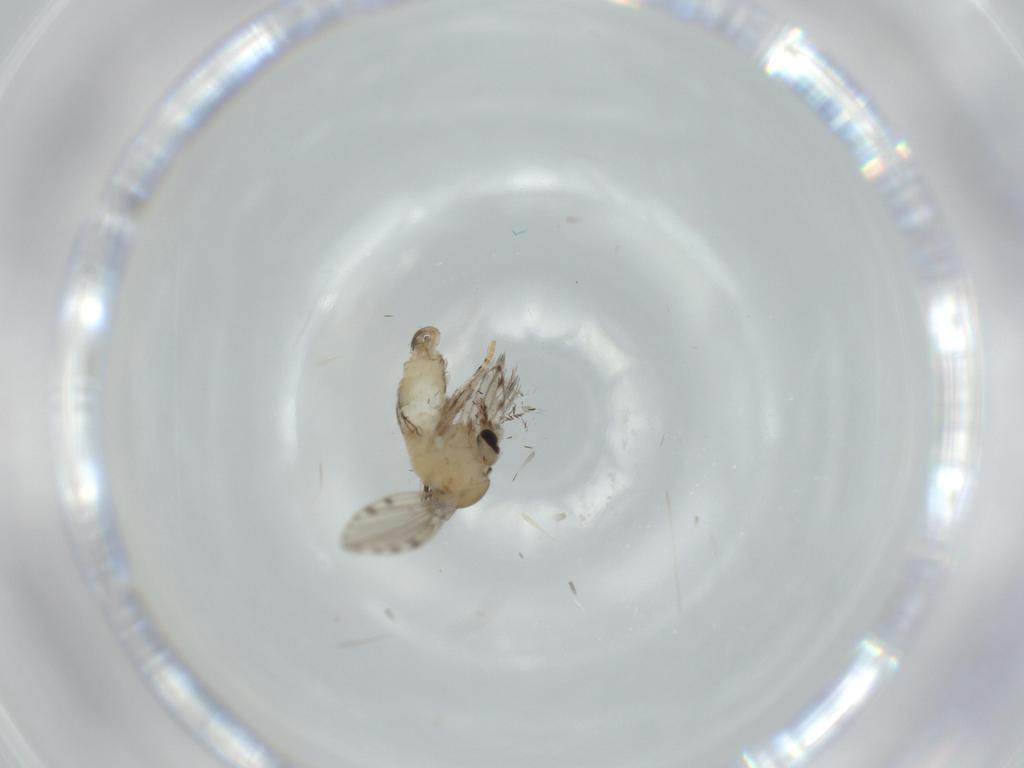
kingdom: Animalia
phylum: Arthropoda
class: Insecta
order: Diptera
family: Psychodidae
